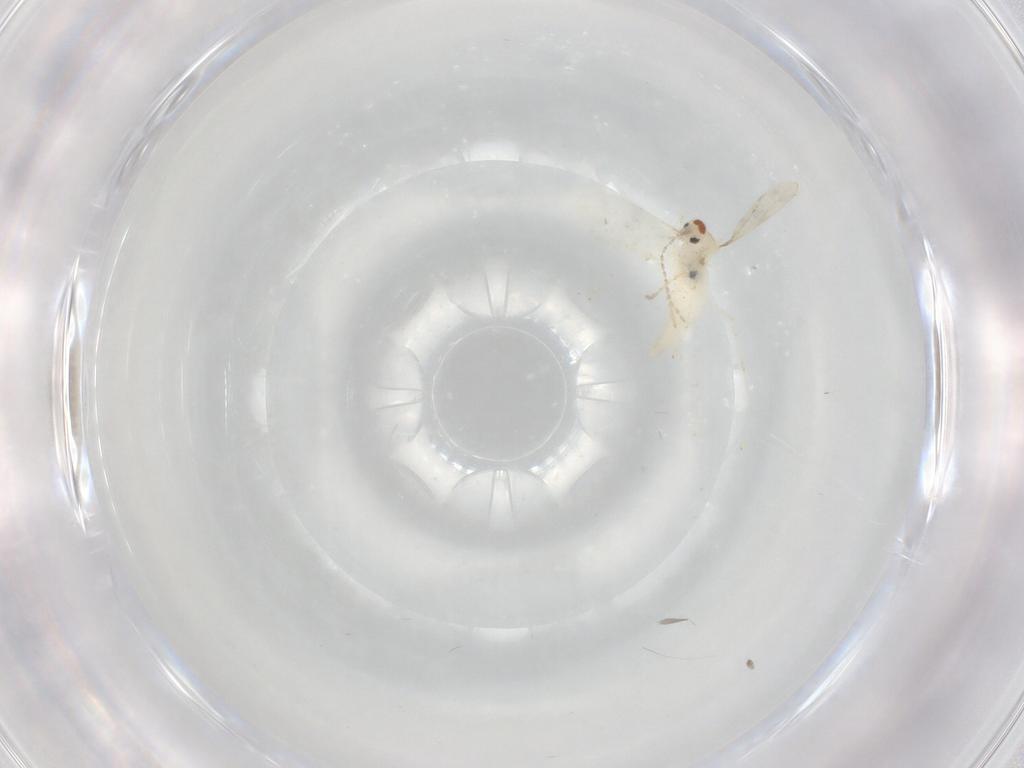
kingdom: Animalia
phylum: Arthropoda
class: Insecta
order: Diptera
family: Cecidomyiidae
